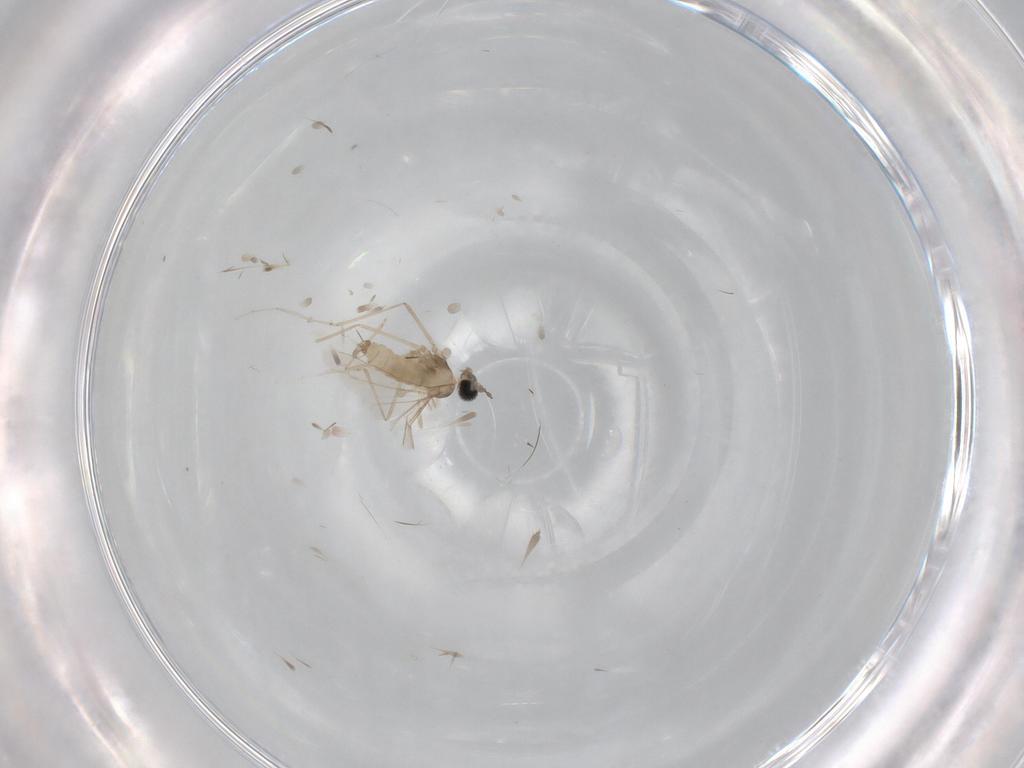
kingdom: Animalia
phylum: Arthropoda
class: Insecta
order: Diptera
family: Cecidomyiidae
